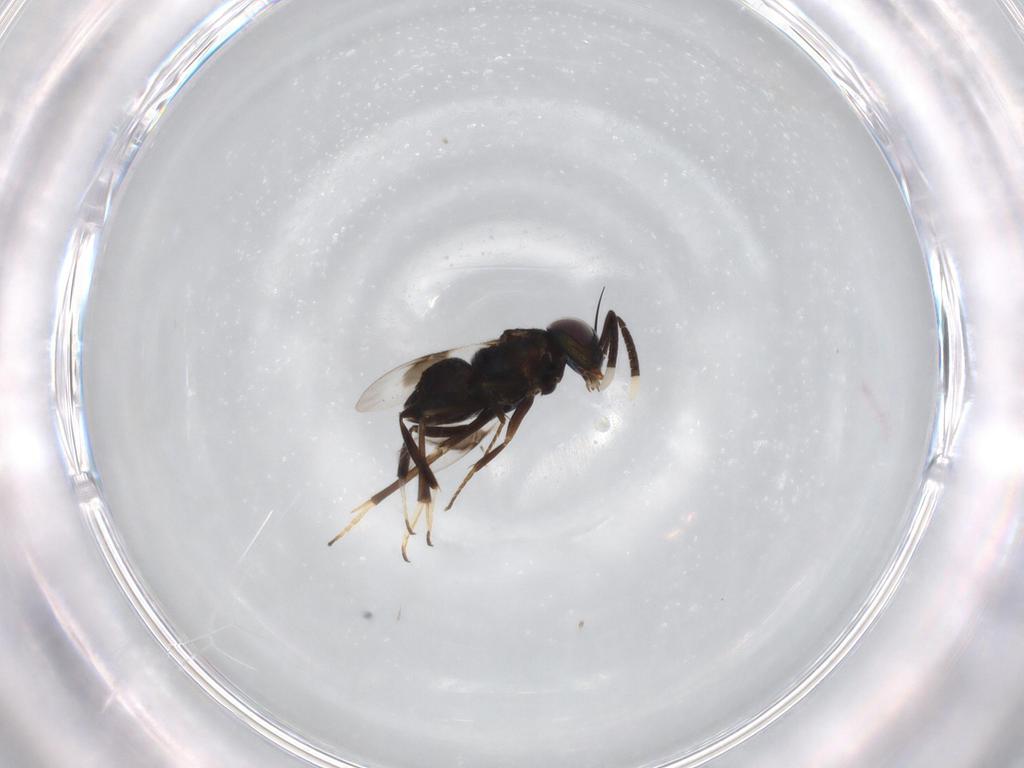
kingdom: Animalia
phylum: Arthropoda
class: Insecta
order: Hymenoptera
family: Encyrtidae
